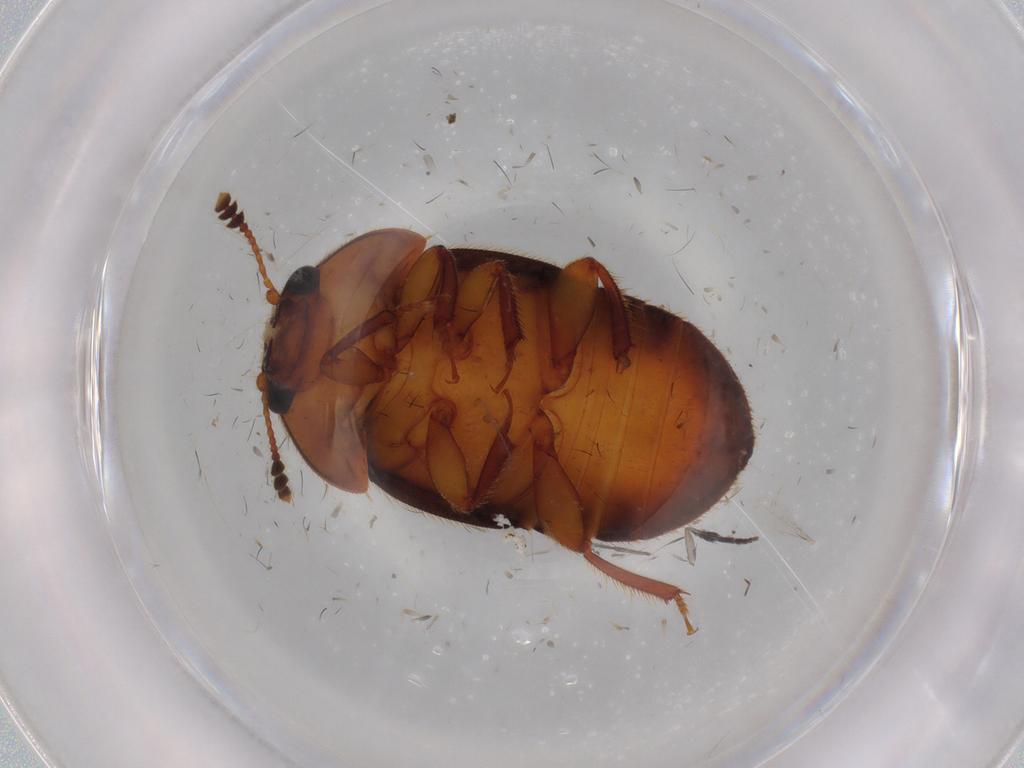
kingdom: Animalia
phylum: Arthropoda
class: Insecta
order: Coleoptera
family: Nitidulidae
